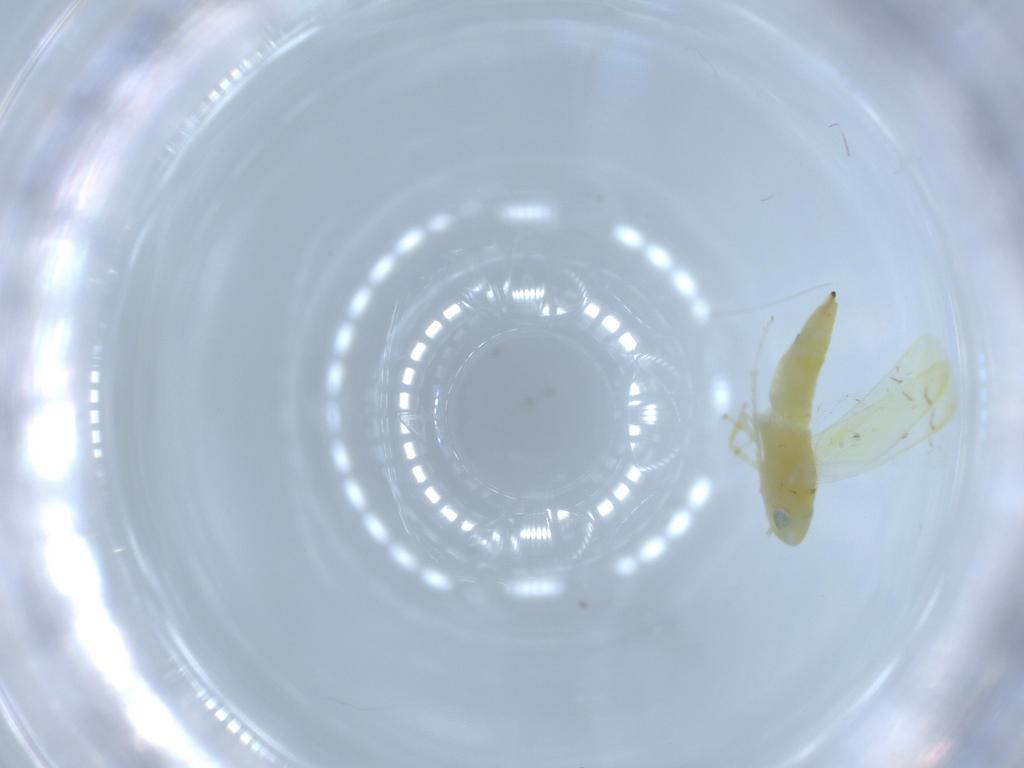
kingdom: Animalia
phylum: Arthropoda
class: Insecta
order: Hemiptera
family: Cicadellidae
